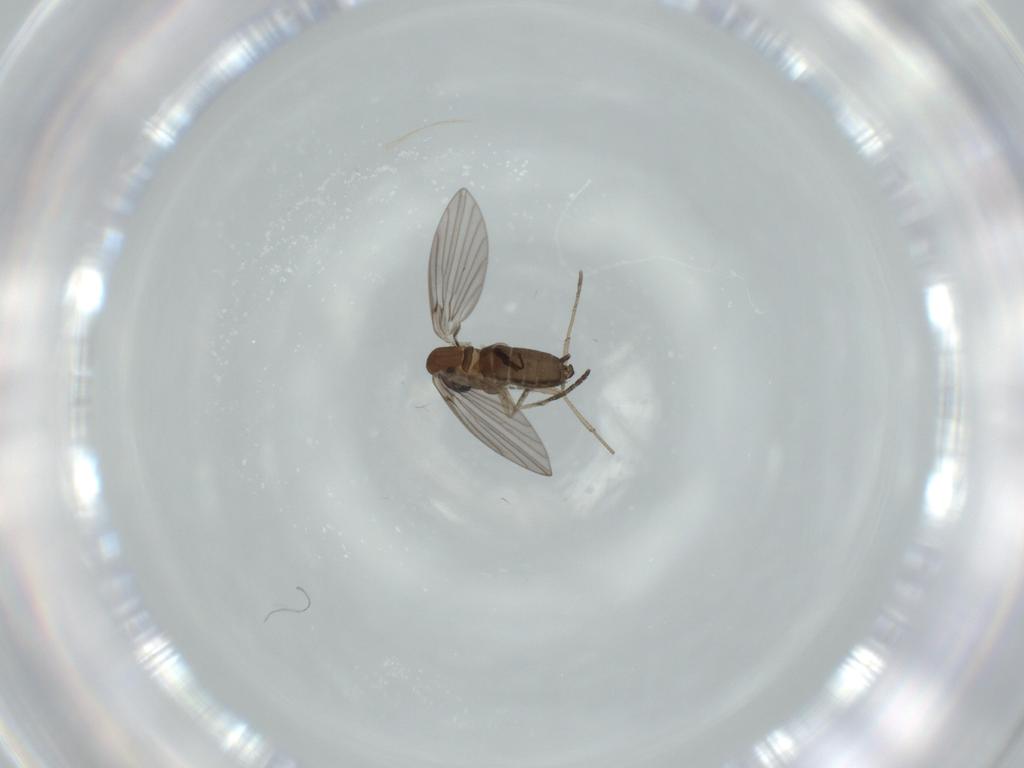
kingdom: Animalia
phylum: Arthropoda
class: Insecta
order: Diptera
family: Psychodidae
